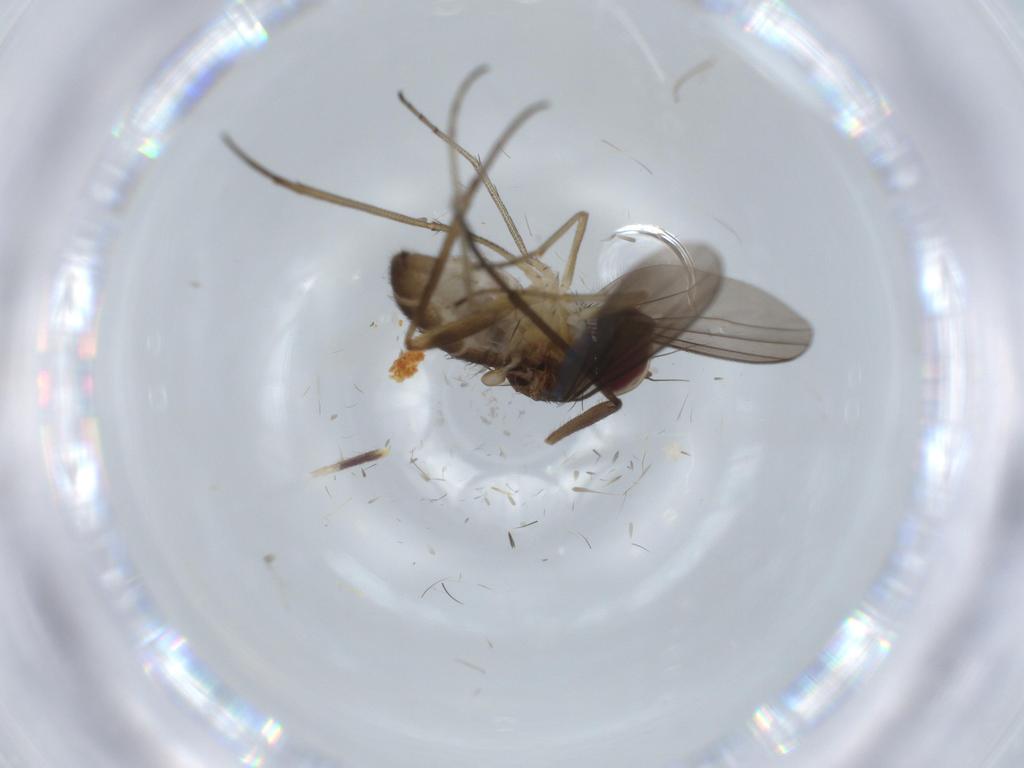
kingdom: Animalia
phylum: Arthropoda
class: Insecta
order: Diptera
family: Dolichopodidae
